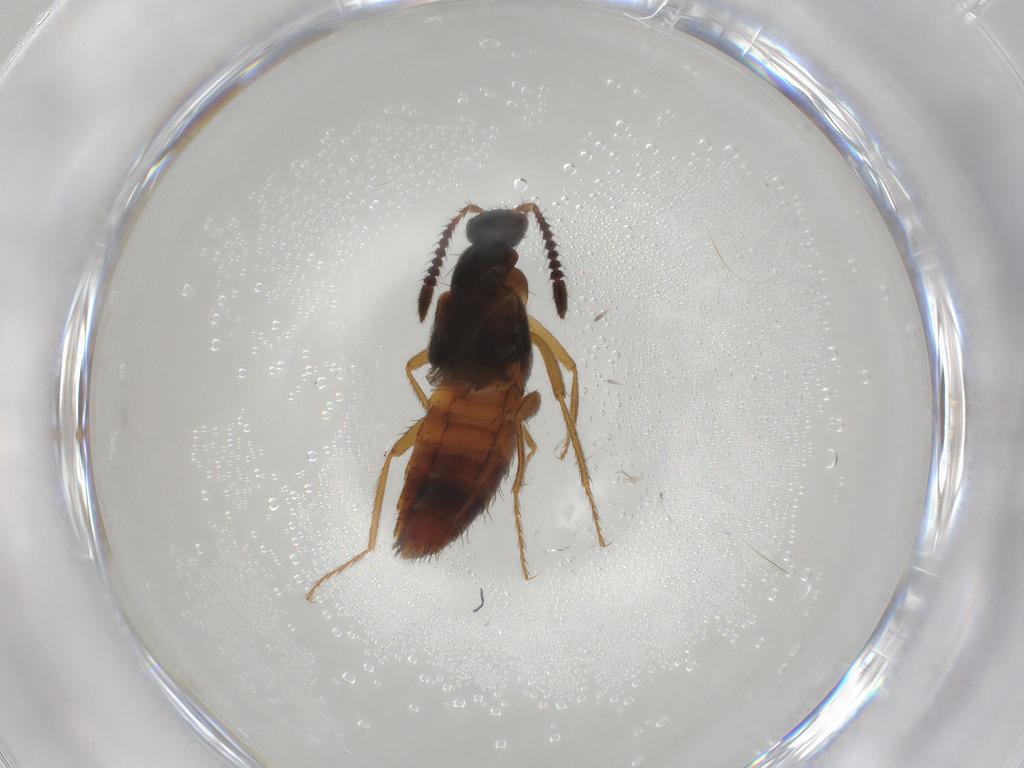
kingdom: Animalia
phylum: Arthropoda
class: Insecta
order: Coleoptera
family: Staphylinidae
